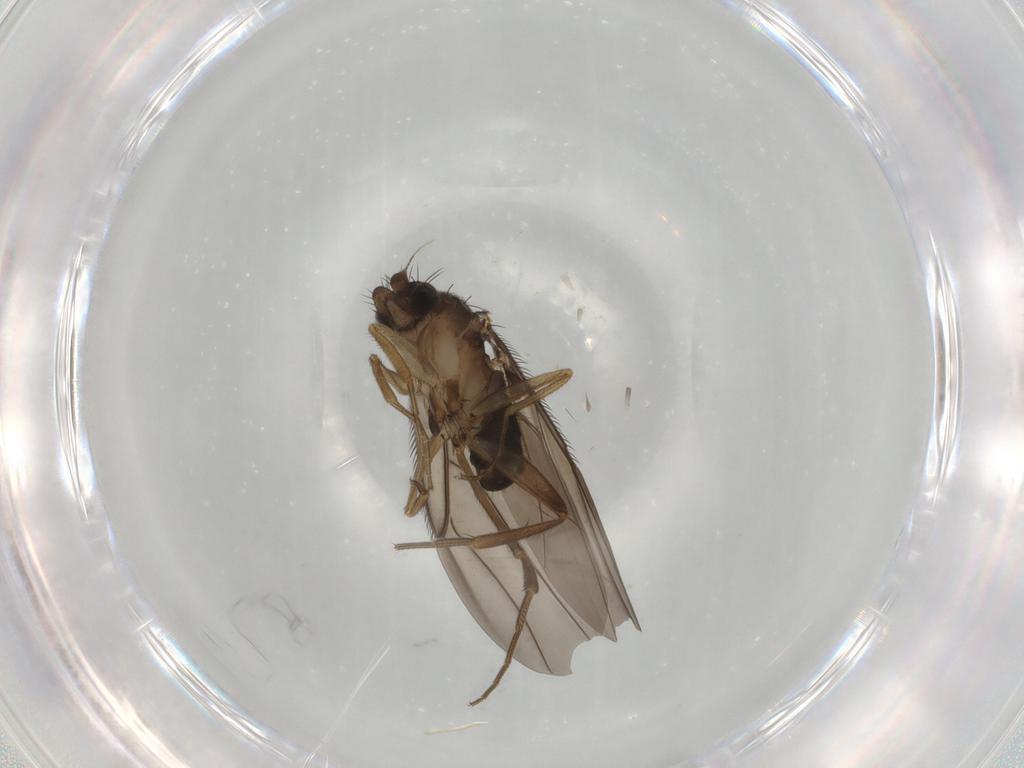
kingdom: Animalia
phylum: Arthropoda
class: Insecta
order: Diptera
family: Phoridae
